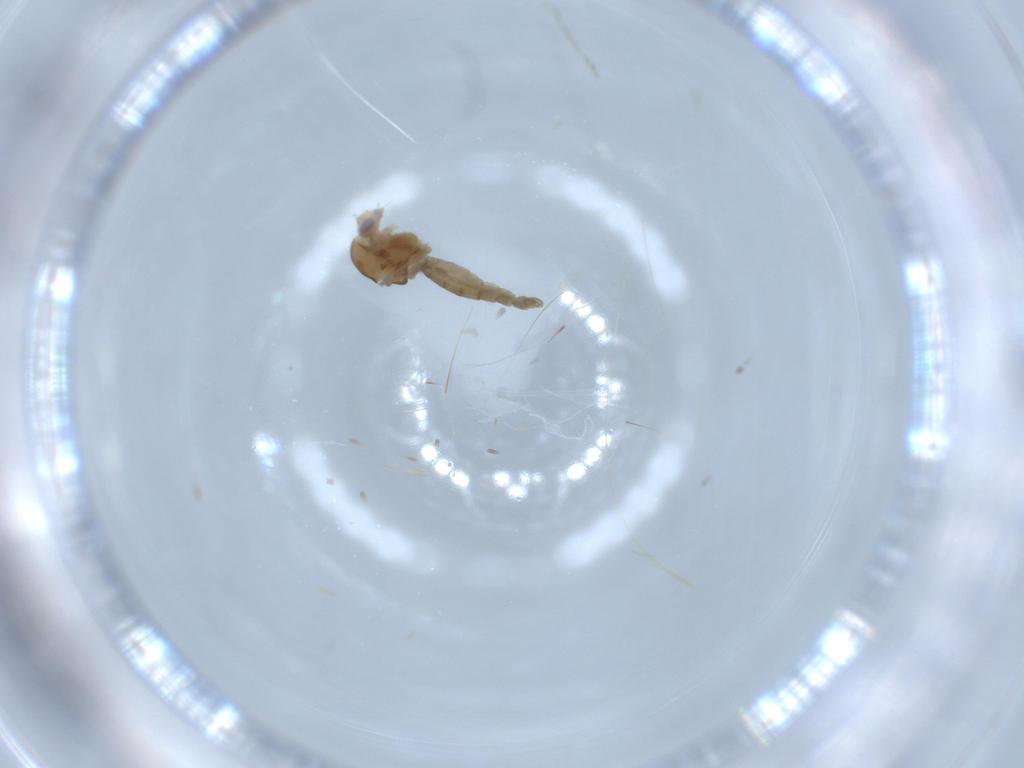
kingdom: Animalia
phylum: Arthropoda
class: Insecta
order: Diptera
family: Chironomidae
